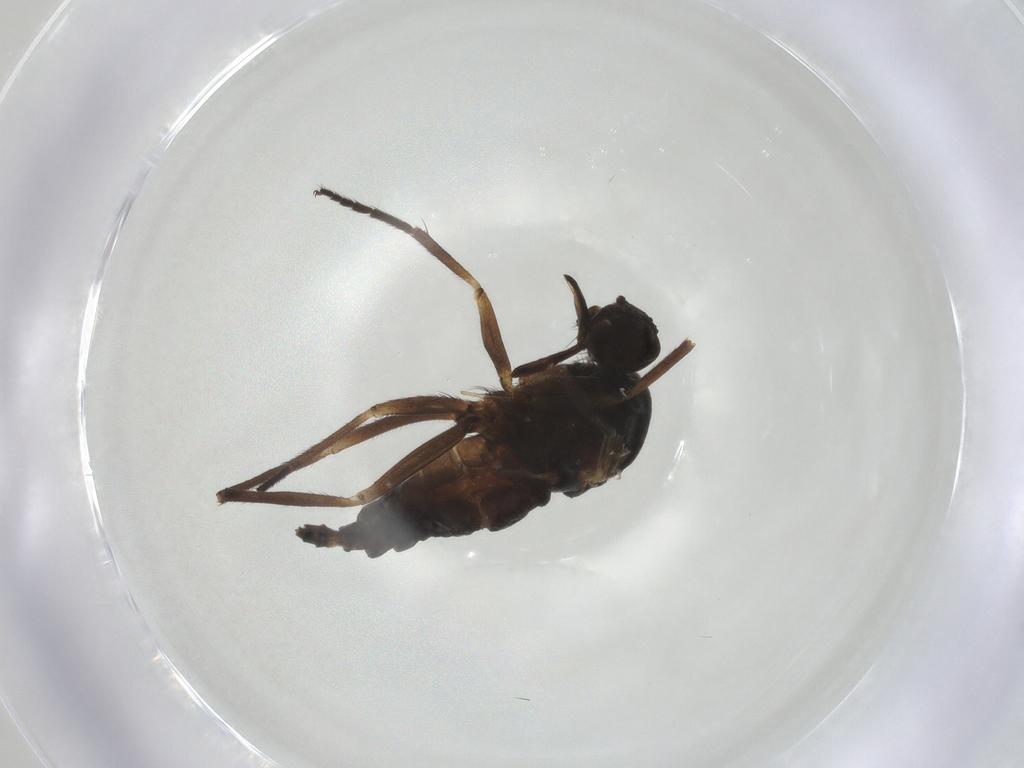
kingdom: Animalia
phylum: Arthropoda
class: Insecta
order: Diptera
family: Empididae
